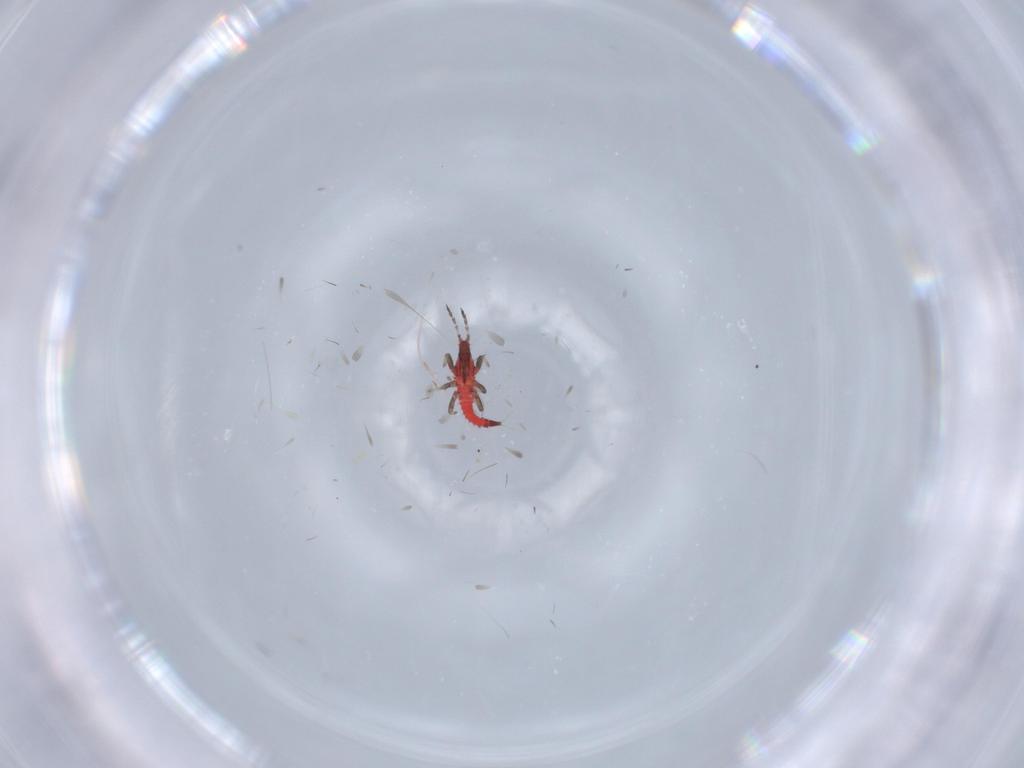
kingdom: Animalia
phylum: Arthropoda
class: Insecta
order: Thysanoptera
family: Phlaeothripidae
